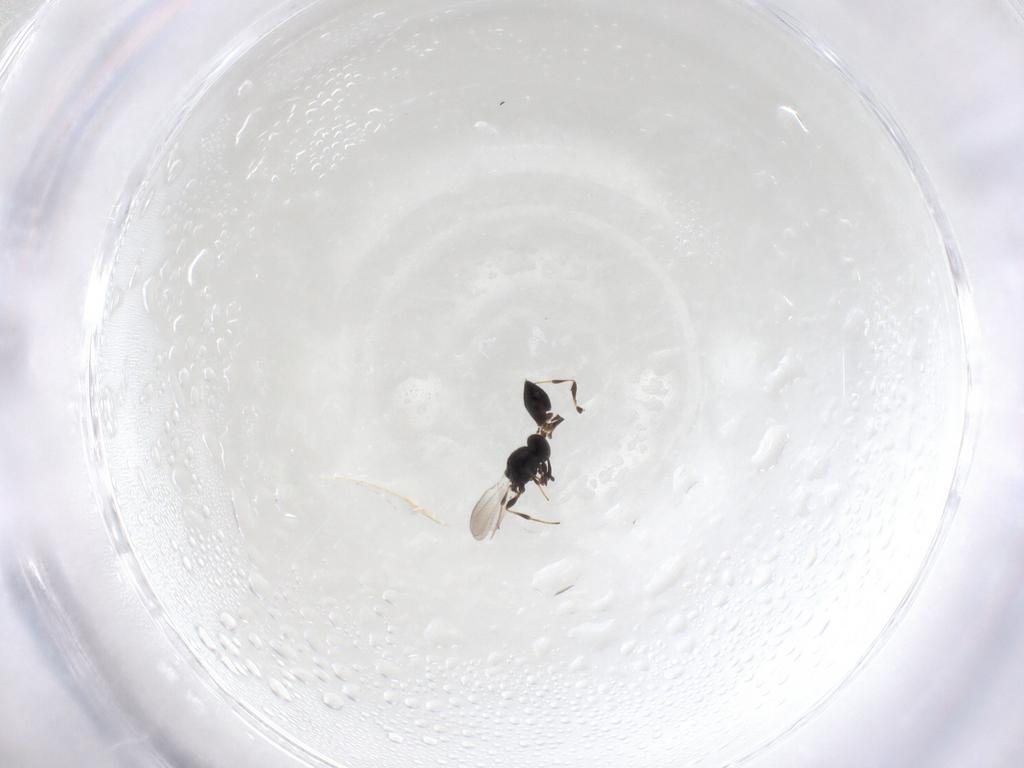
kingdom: Animalia
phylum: Arthropoda
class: Insecta
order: Hymenoptera
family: Platygastridae
